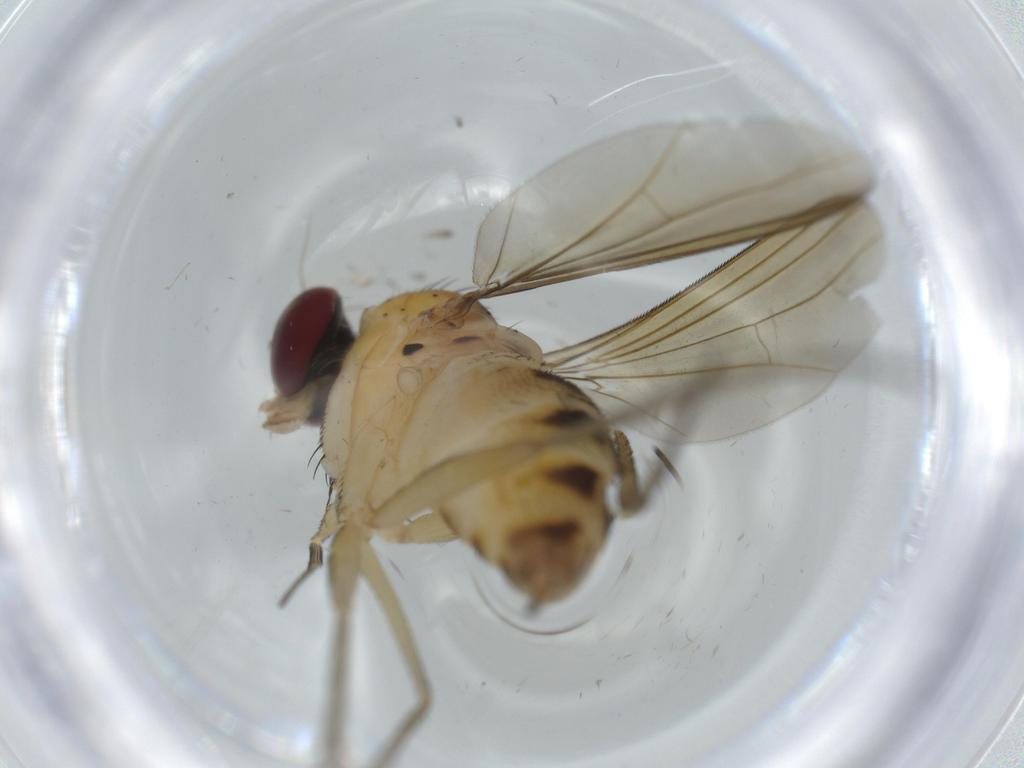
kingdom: Animalia
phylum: Arthropoda
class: Insecta
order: Diptera
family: Dolichopodidae
